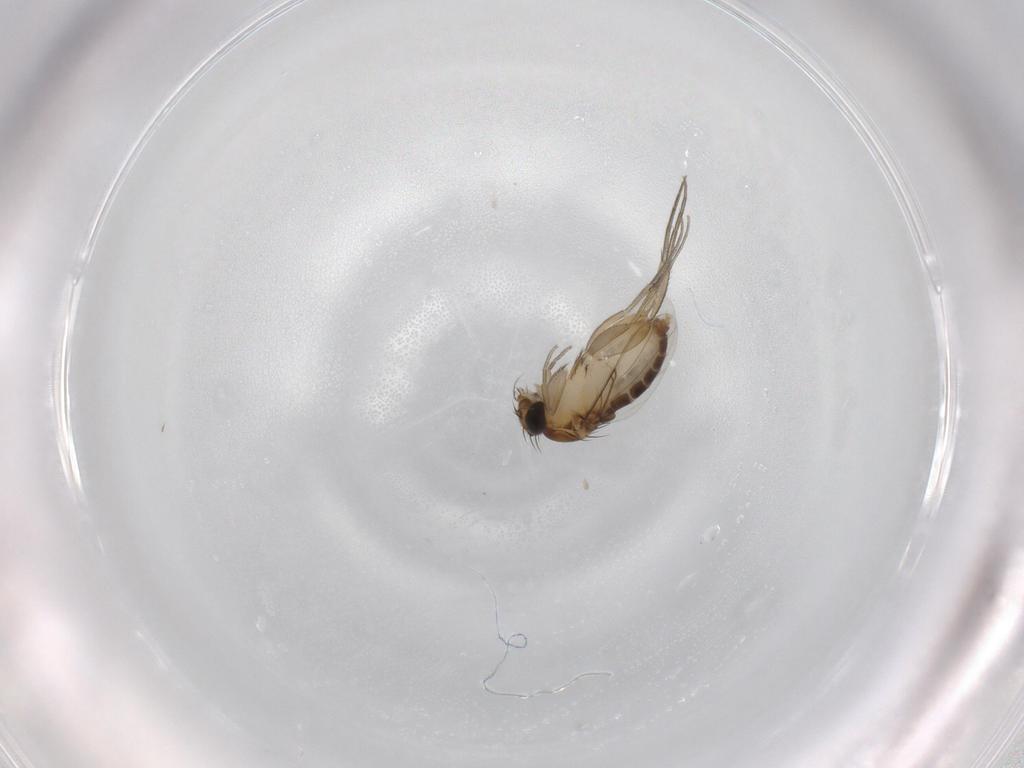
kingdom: Animalia
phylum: Arthropoda
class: Insecta
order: Diptera
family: Phoridae
